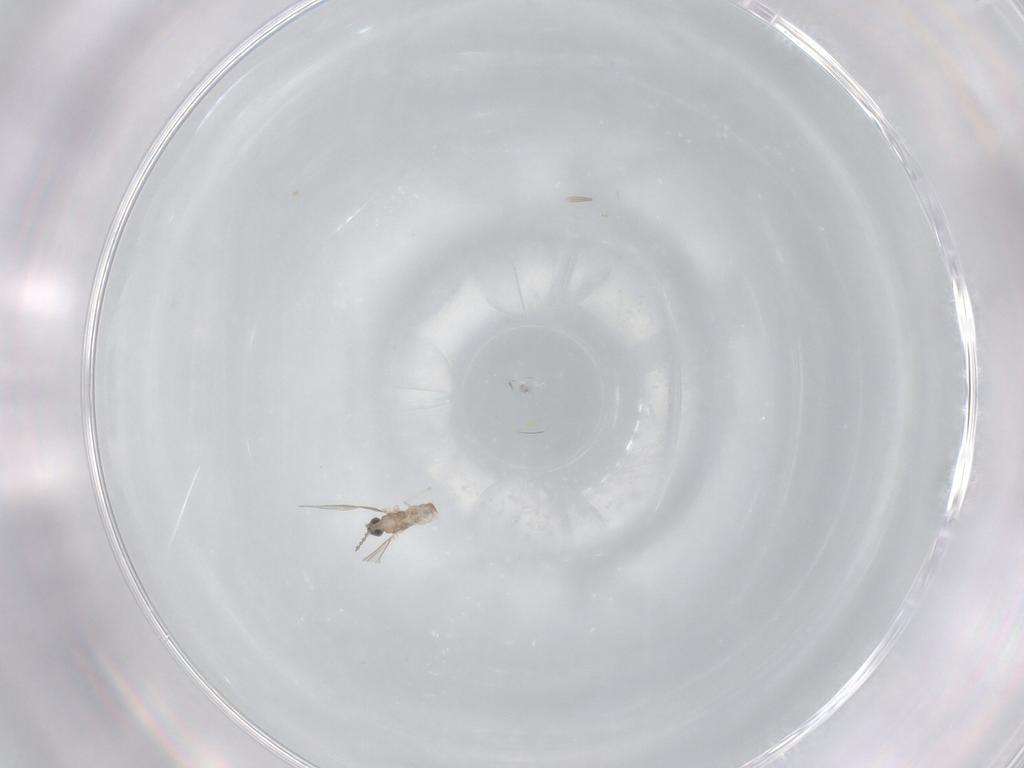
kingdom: Animalia
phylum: Arthropoda
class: Insecta
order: Diptera
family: Cecidomyiidae
